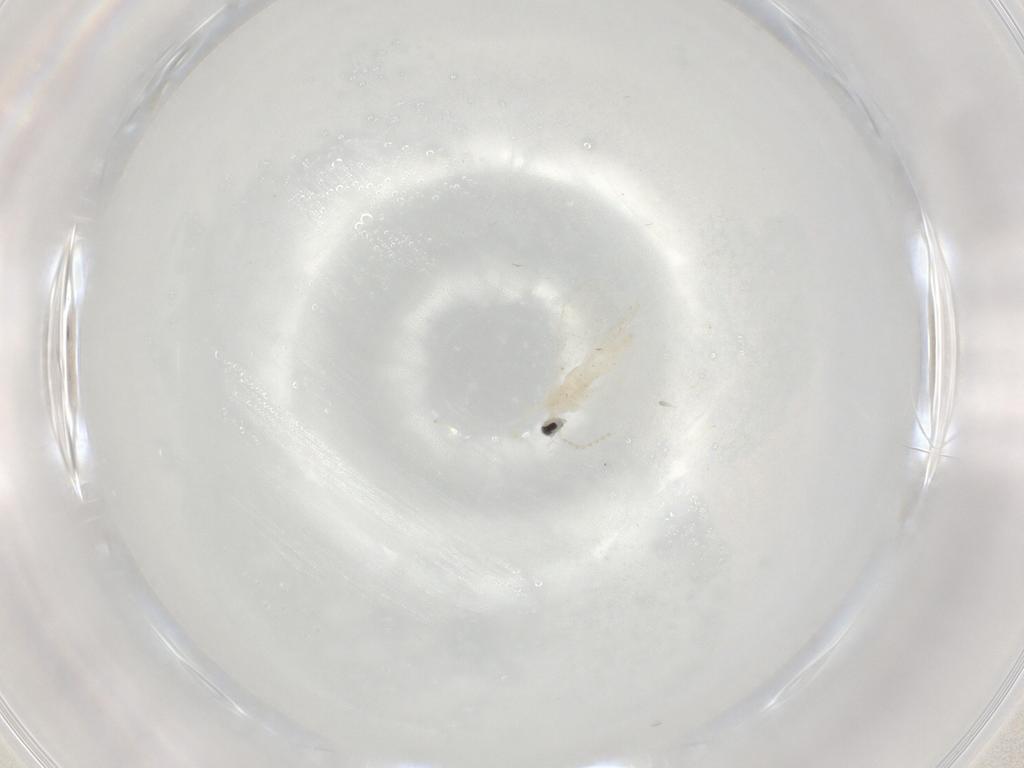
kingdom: Animalia
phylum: Arthropoda
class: Insecta
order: Diptera
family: Cecidomyiidae
